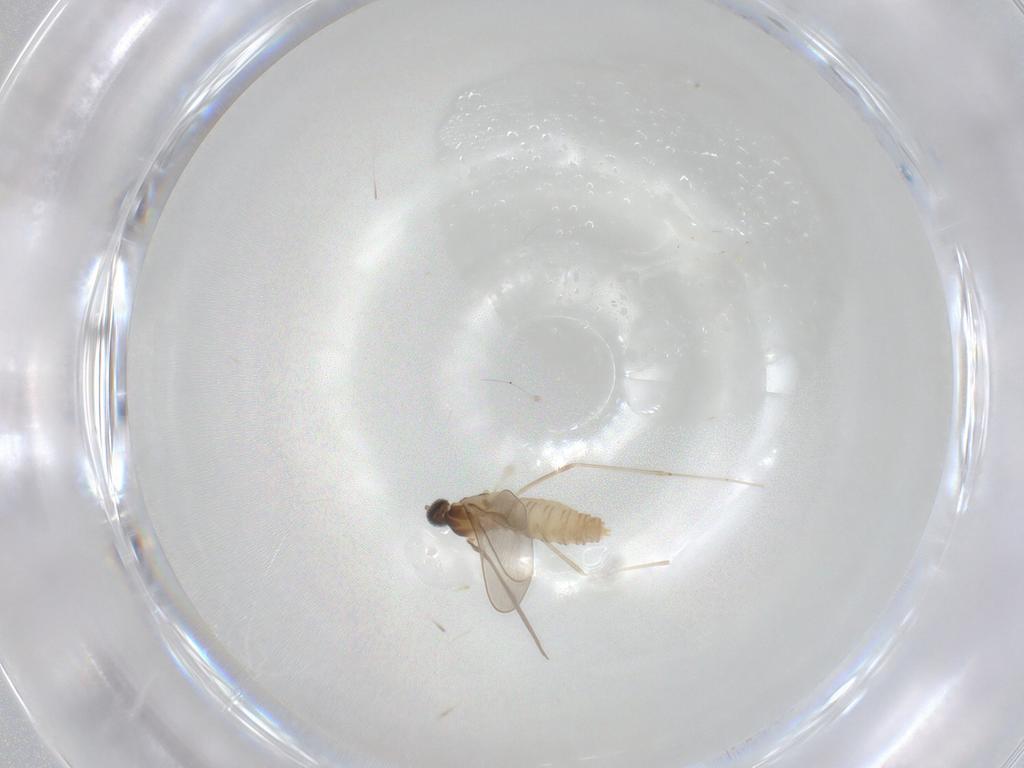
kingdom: Animalia
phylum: Arthropoda
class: Insecta
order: Diptera
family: Cecidomyiidae
